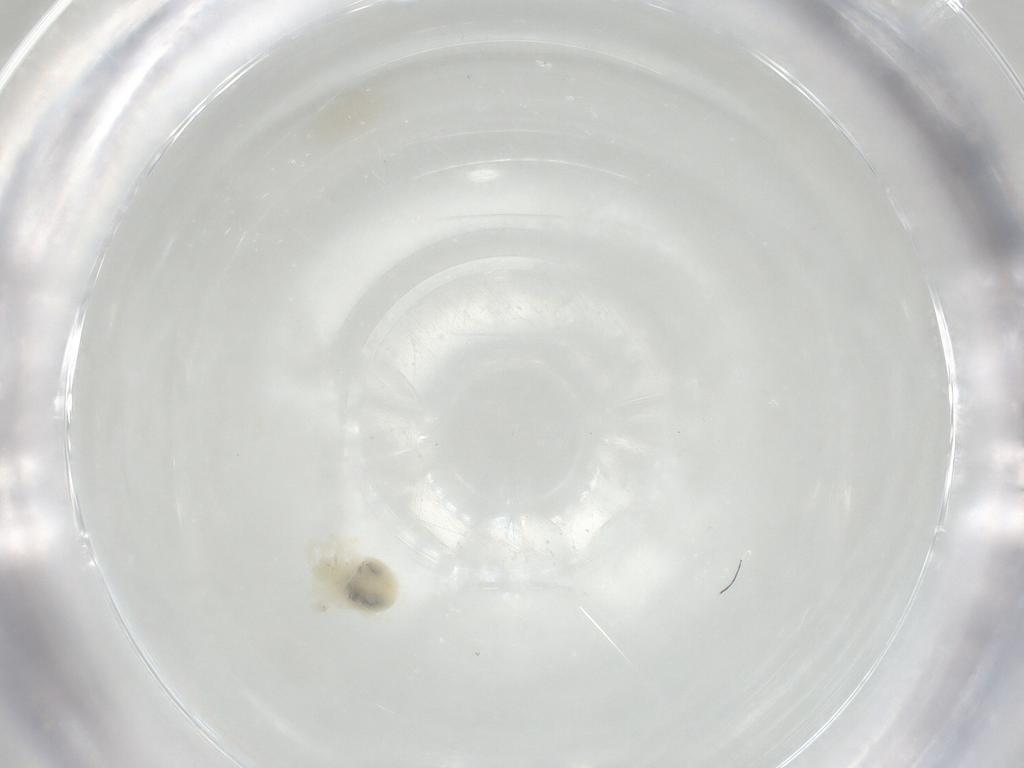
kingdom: Animalia
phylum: Arthropoda
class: Arachnida
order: Trombidiformes
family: Anystidae
